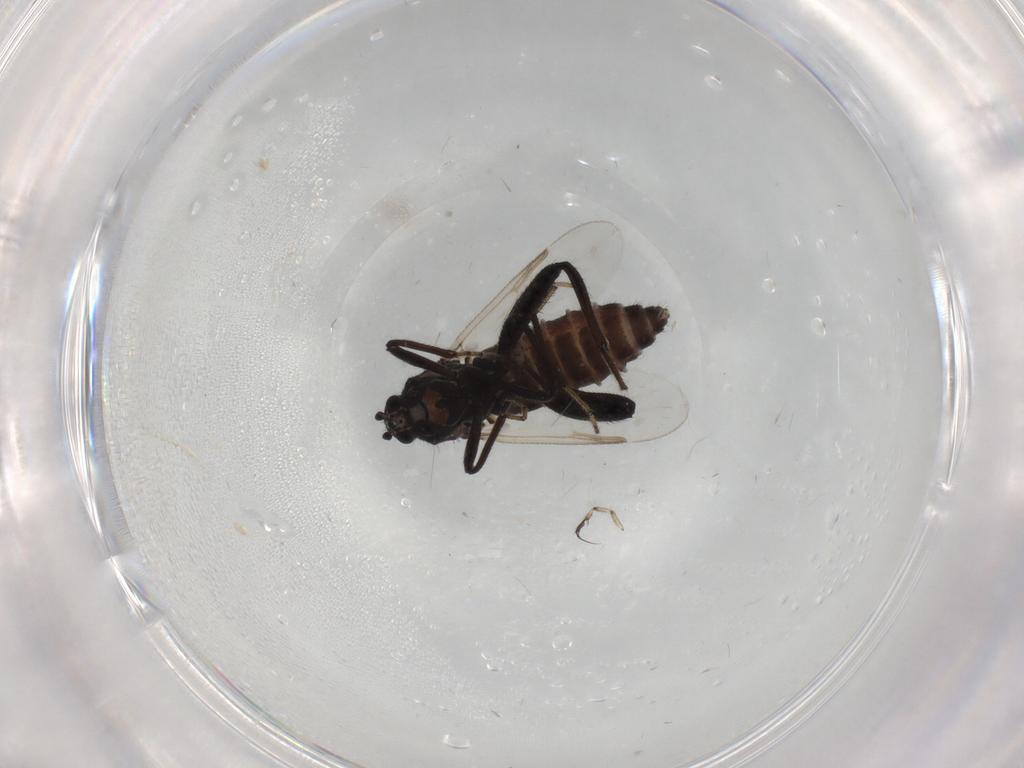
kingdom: Animalia
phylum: Arthropoda
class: Insecta
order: Diptera
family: Ceratopogonidae
